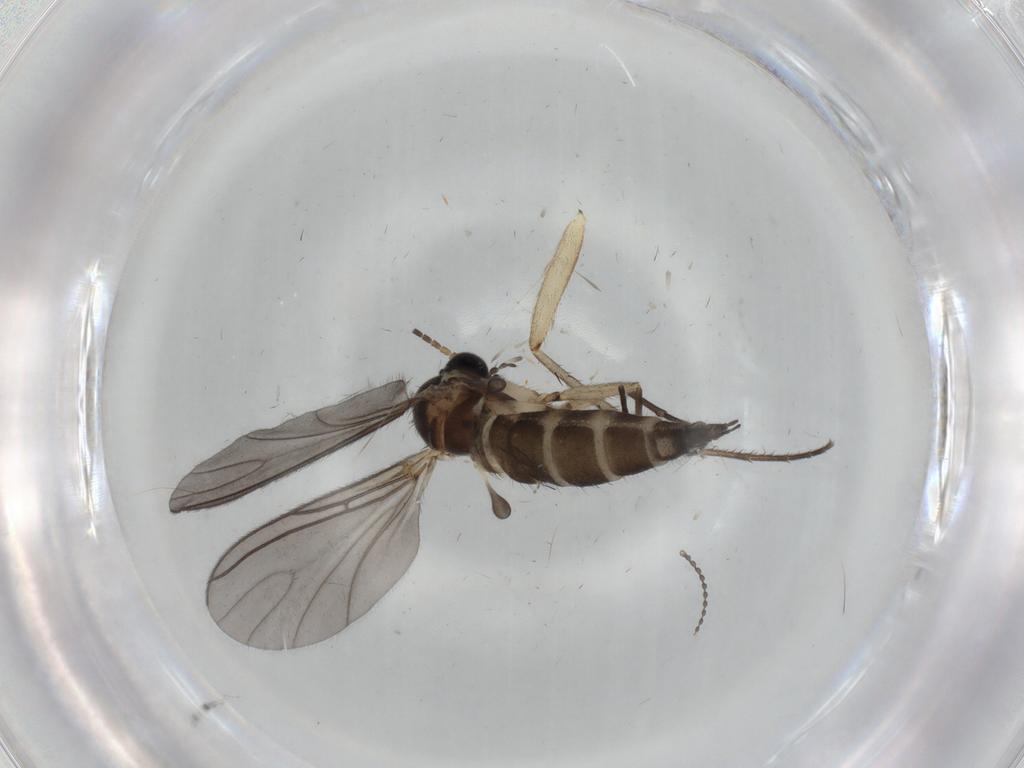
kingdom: Animalia
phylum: Arthropoda
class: Insecta
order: Diptera
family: Sciaridae
